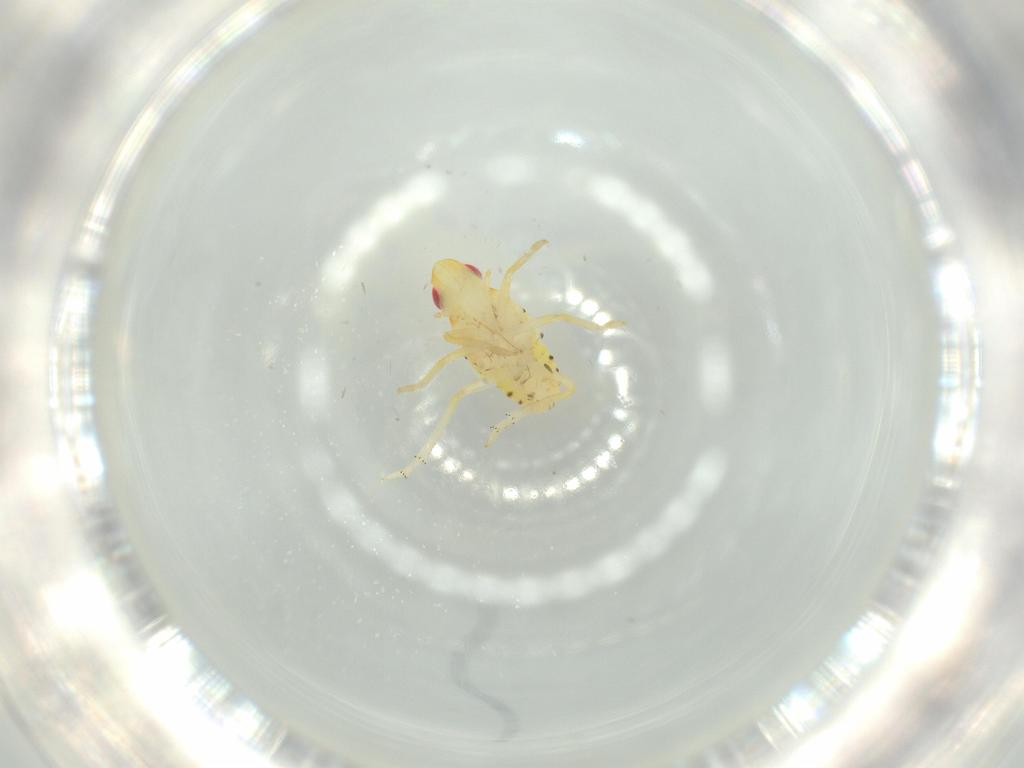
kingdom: Animalia
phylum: Arthropoda
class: Insecta
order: Hemiptera
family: Tropiduchidae
